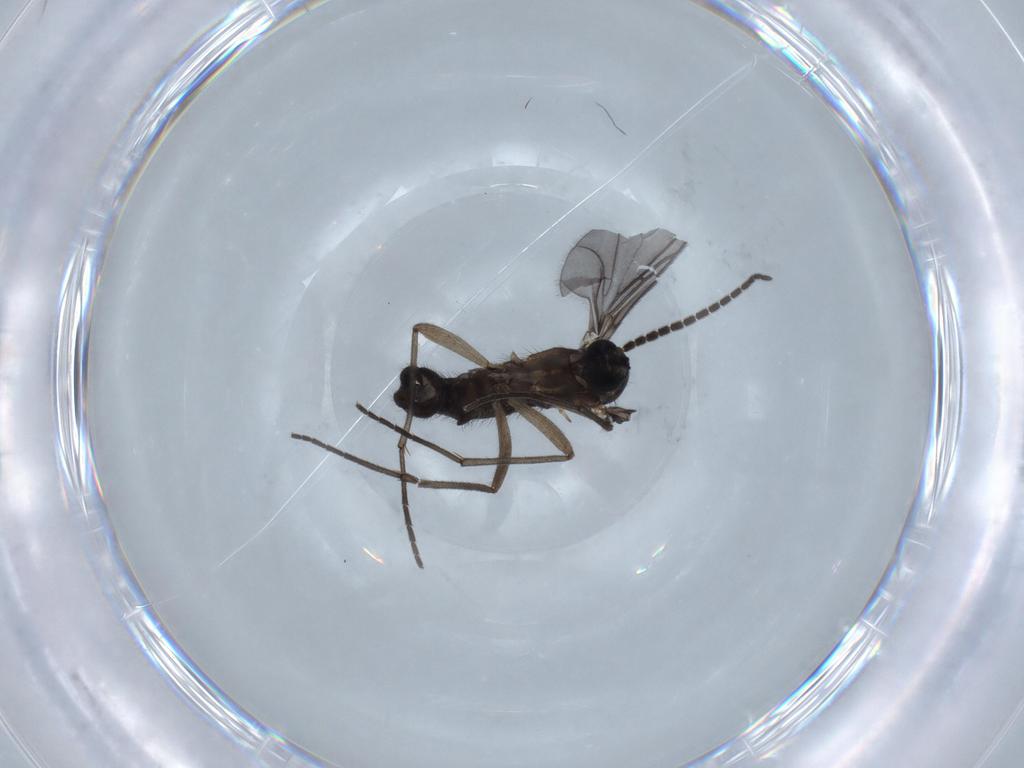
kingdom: Animalia
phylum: Arthropoda
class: Insecta
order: Diptera
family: Sciaridae
